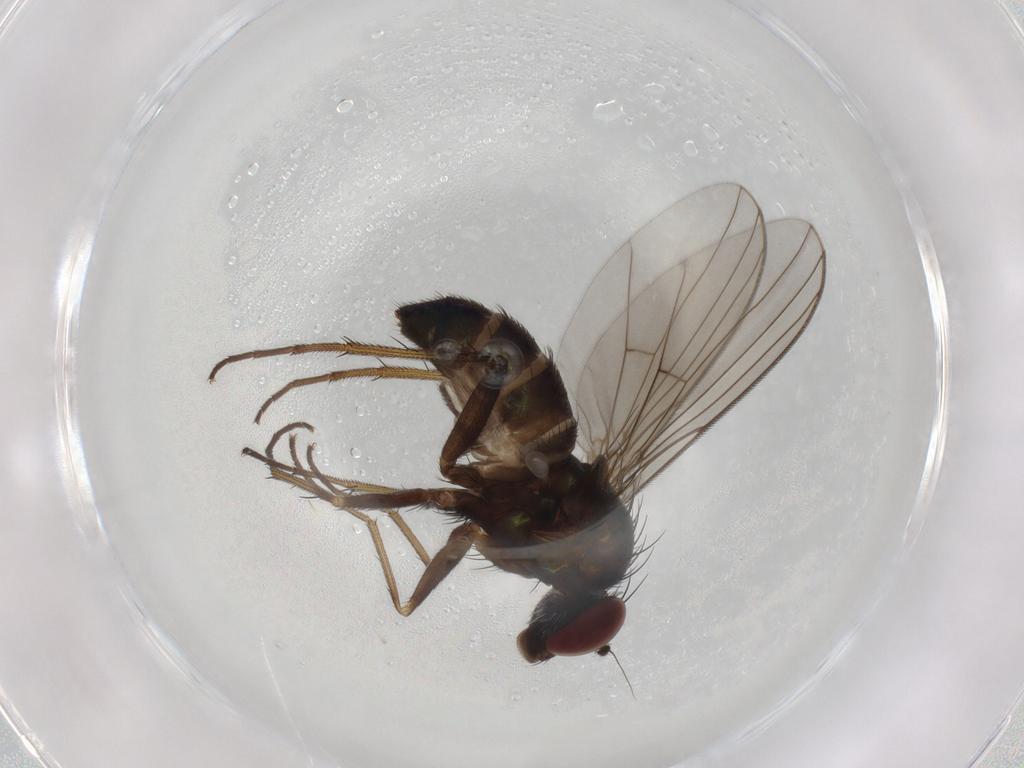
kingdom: Animalia
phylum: Arthropoda
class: Insecta
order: Diptera
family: Dolichopodidae
